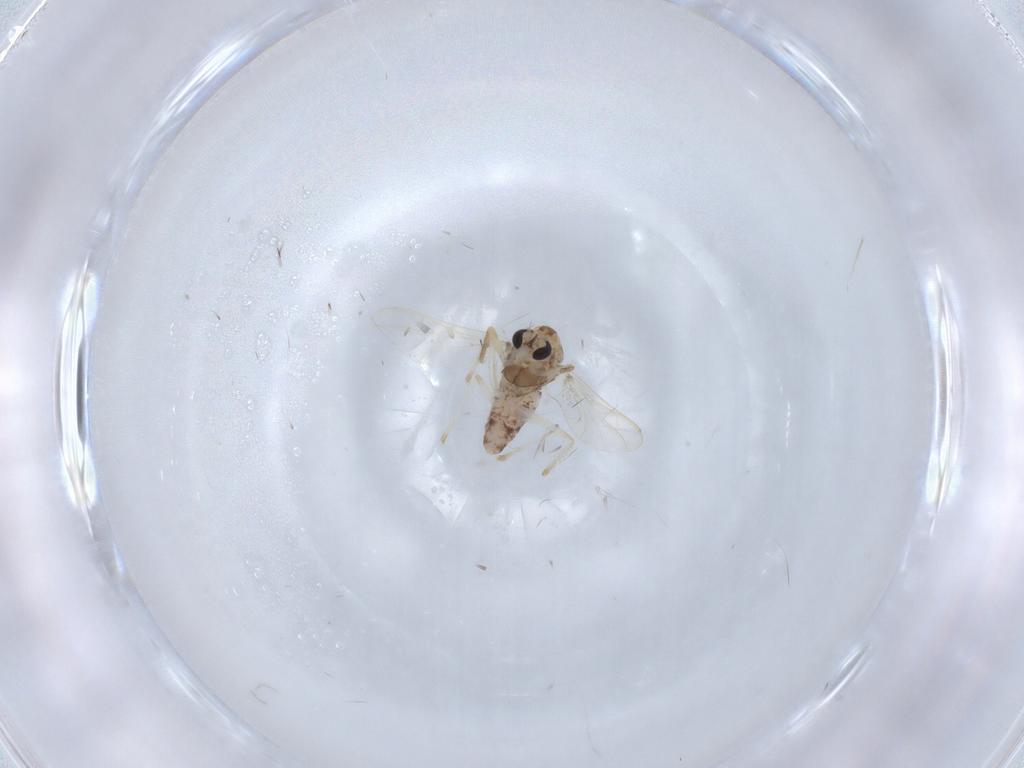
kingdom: Animalia
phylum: Arthropoda
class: Insecta
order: Diptera
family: Chironomidae
